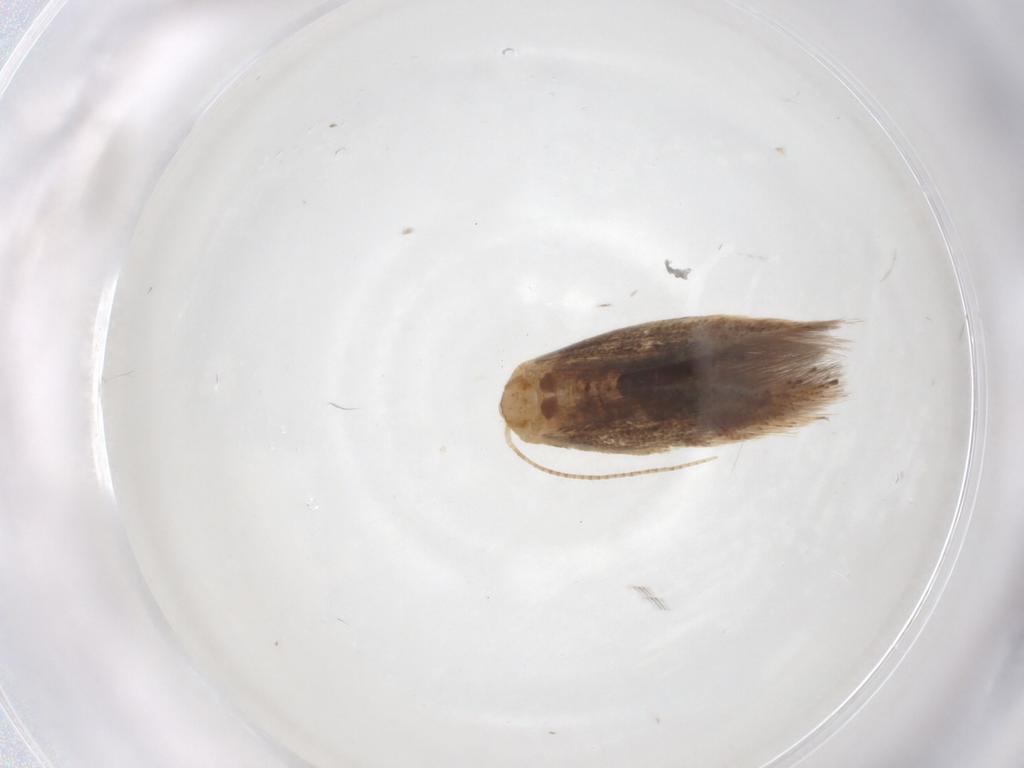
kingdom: Animalia
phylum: Arthropoda
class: Insecta
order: Lepidoptera
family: Bucculatricidae
